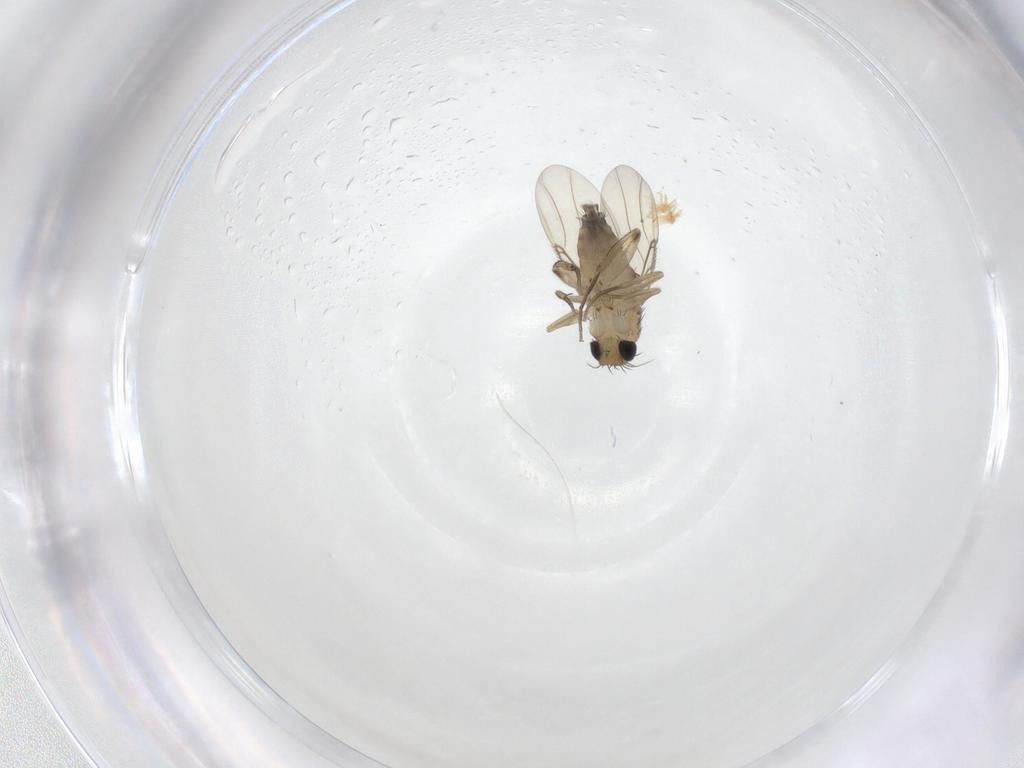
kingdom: Animalia
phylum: Arthropoda
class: Insecta
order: Diptera
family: Phoridae
